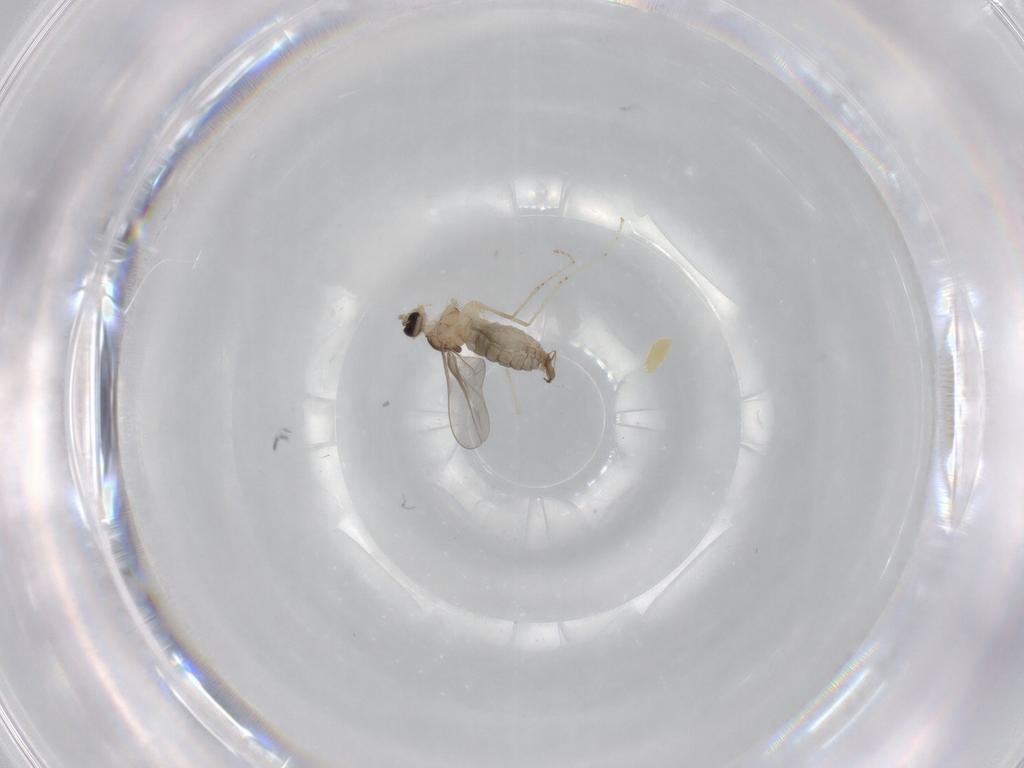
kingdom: Animalia
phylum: Arthropoda
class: Insecta
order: Diptera
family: Cecidomyiidae
